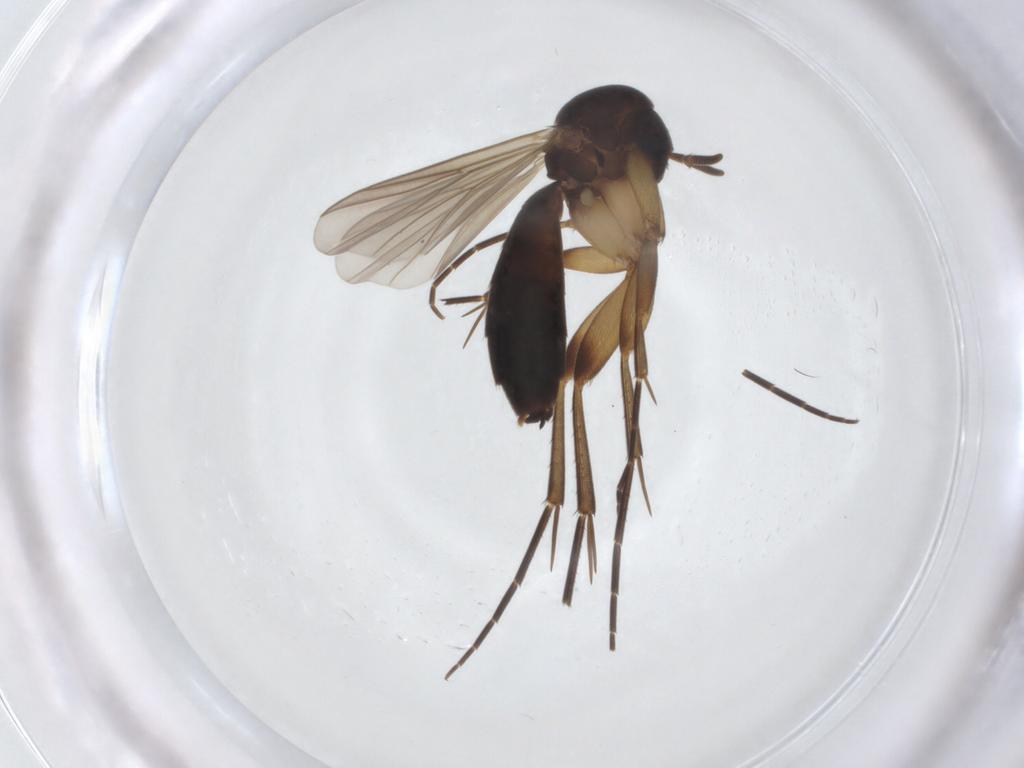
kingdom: Animalia
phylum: Arthropoda
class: Insecta
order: Diptera
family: Mycetophilidae
